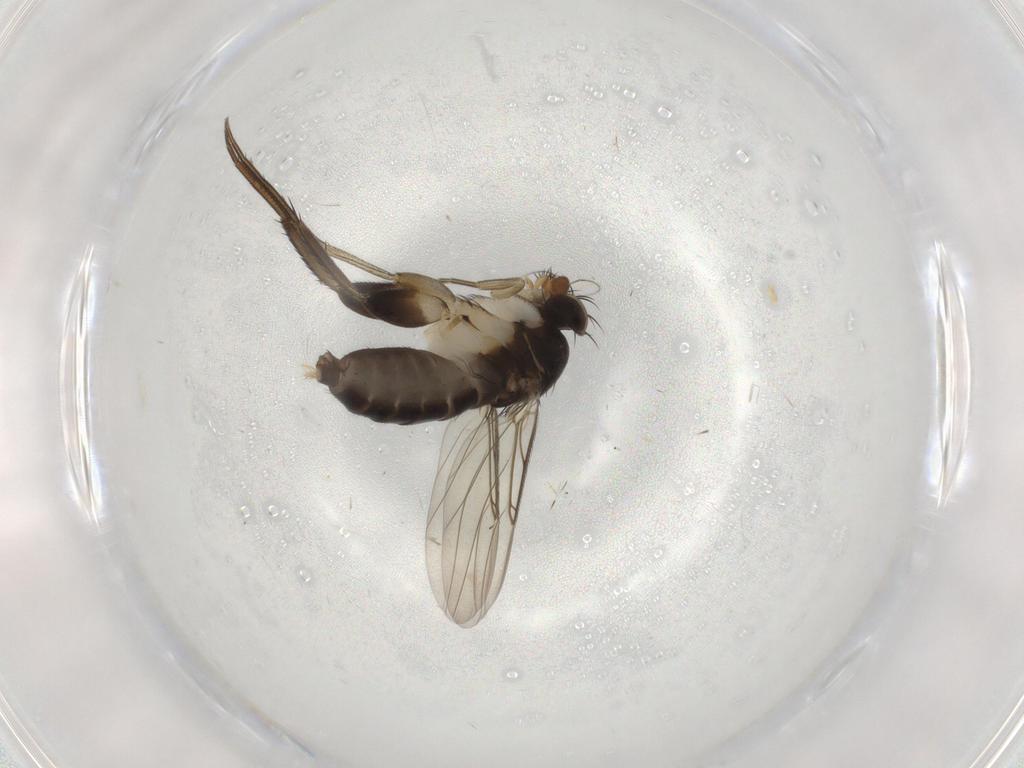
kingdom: Animalia
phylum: Arthropoda
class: Insecta
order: Diptera
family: Phoridae
